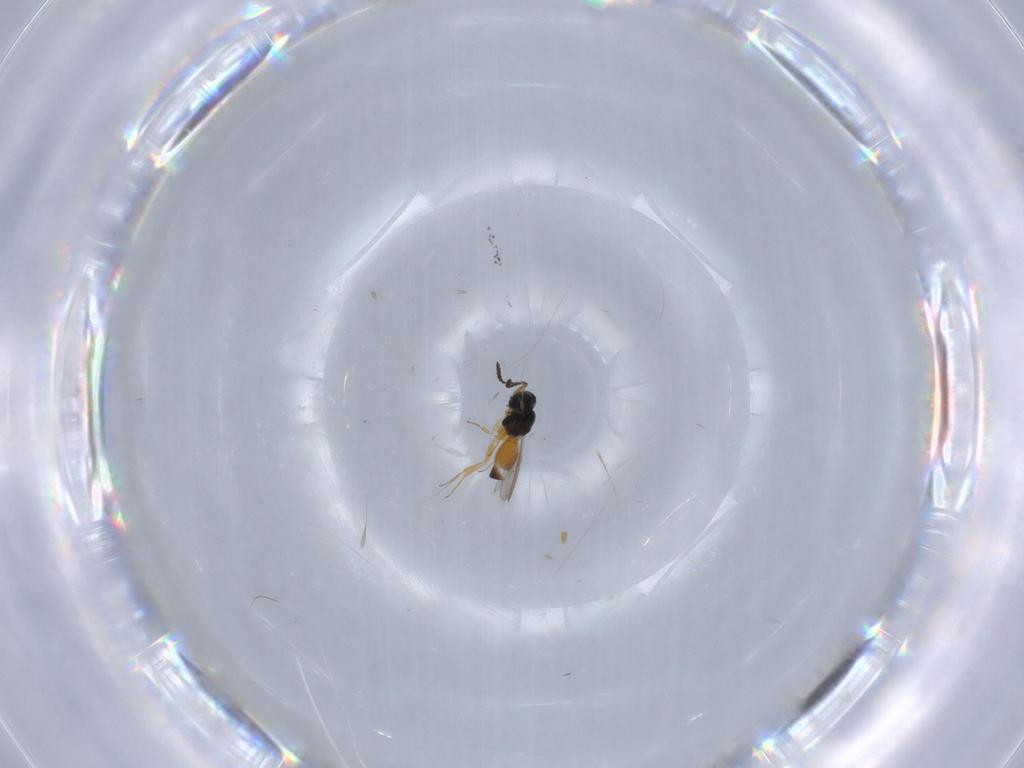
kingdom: Animalia
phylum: Arthropoda
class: Insecta
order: Hymenoptera
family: Scelionidae
